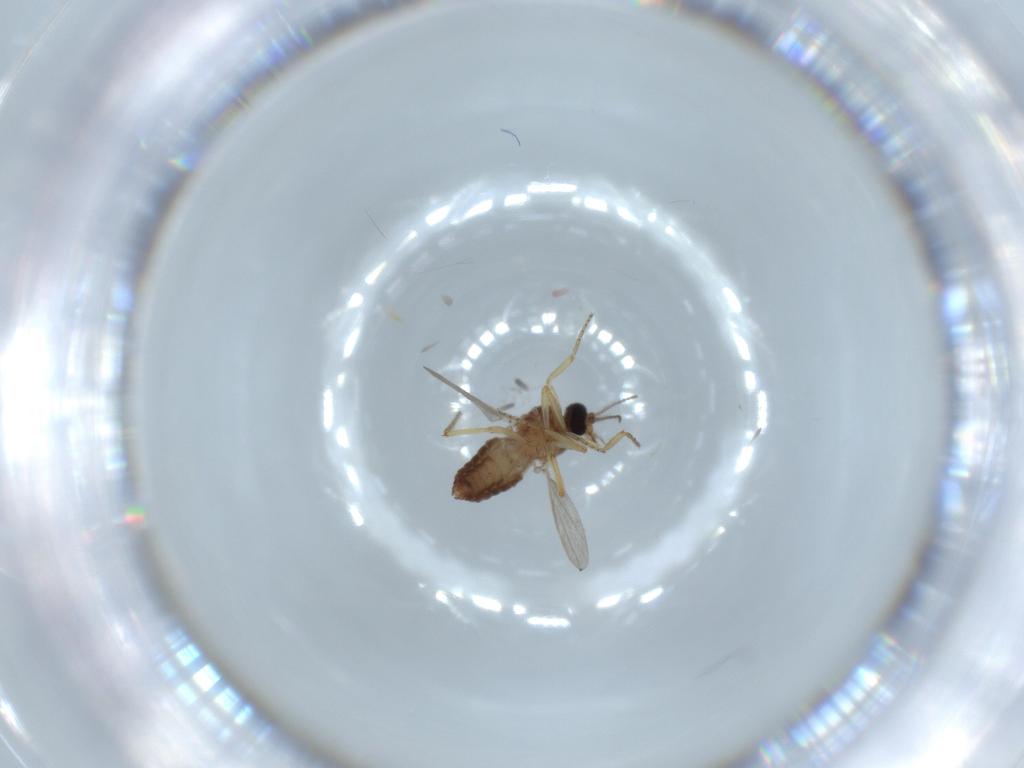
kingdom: Animalia
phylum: Arthropoda
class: Insecta
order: Diptera
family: Ceratopogonidae
